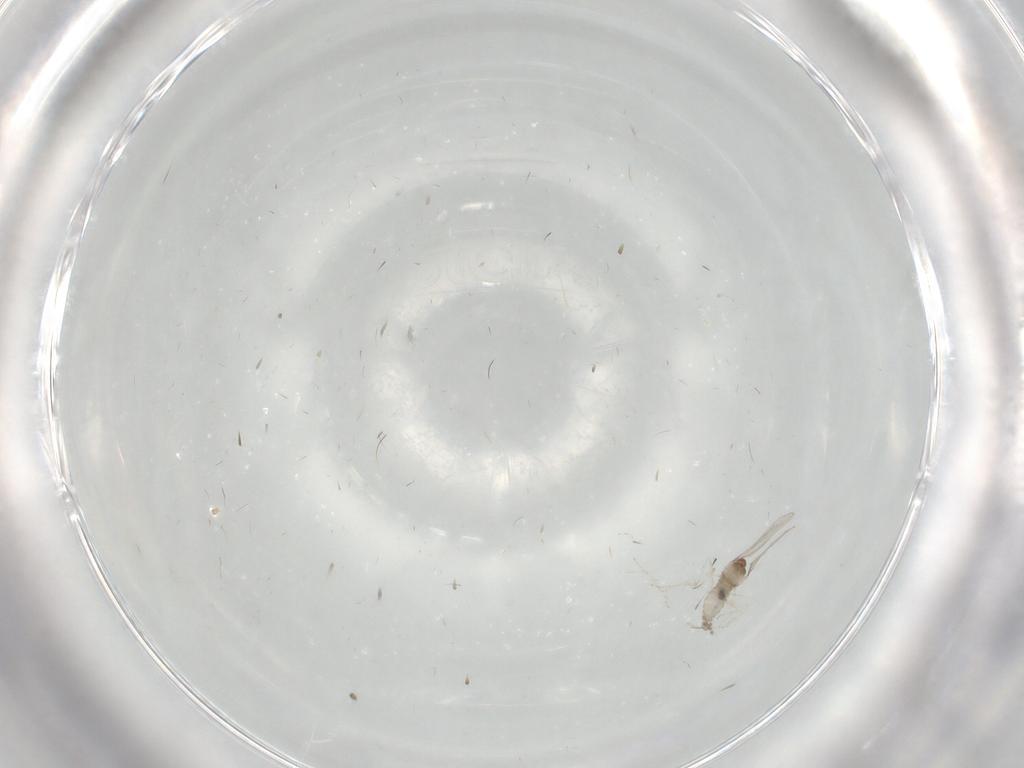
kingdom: Animalia
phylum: Arthropoda
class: Insecta
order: Diptera
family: Cecidomyiidae
